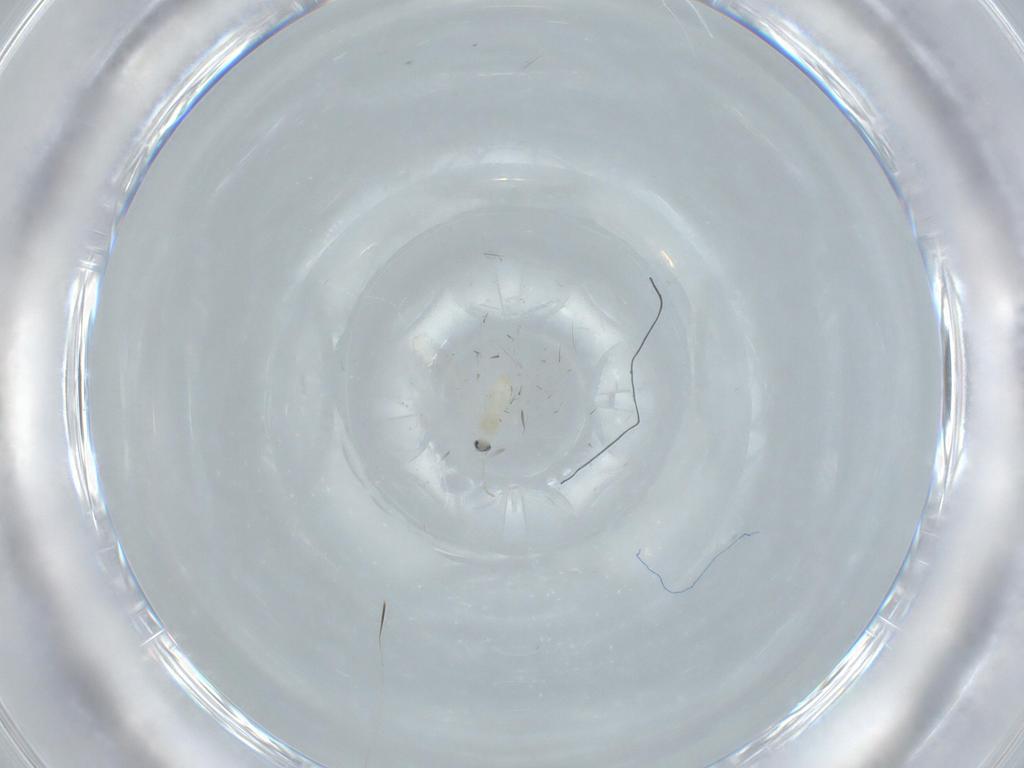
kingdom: Animalia
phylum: Arthropoda
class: Insecta
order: Diptera
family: Cecidomyiidae
